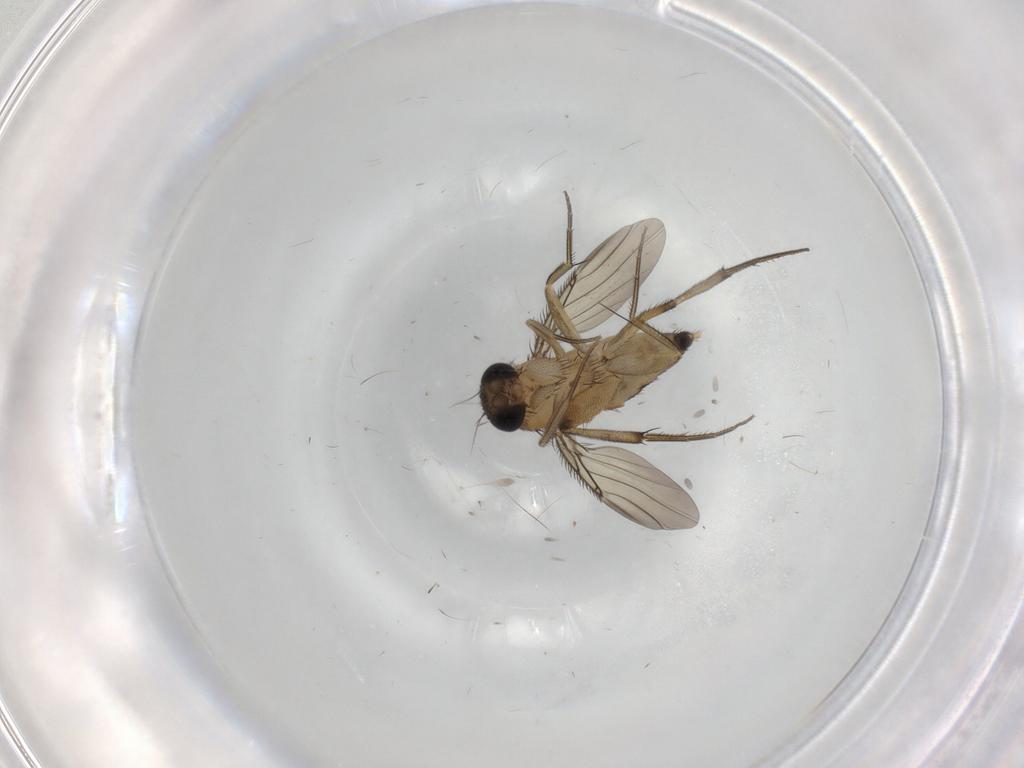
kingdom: Animalia
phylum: Arthropoda
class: Insecta
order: Diptera
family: Phoridae
